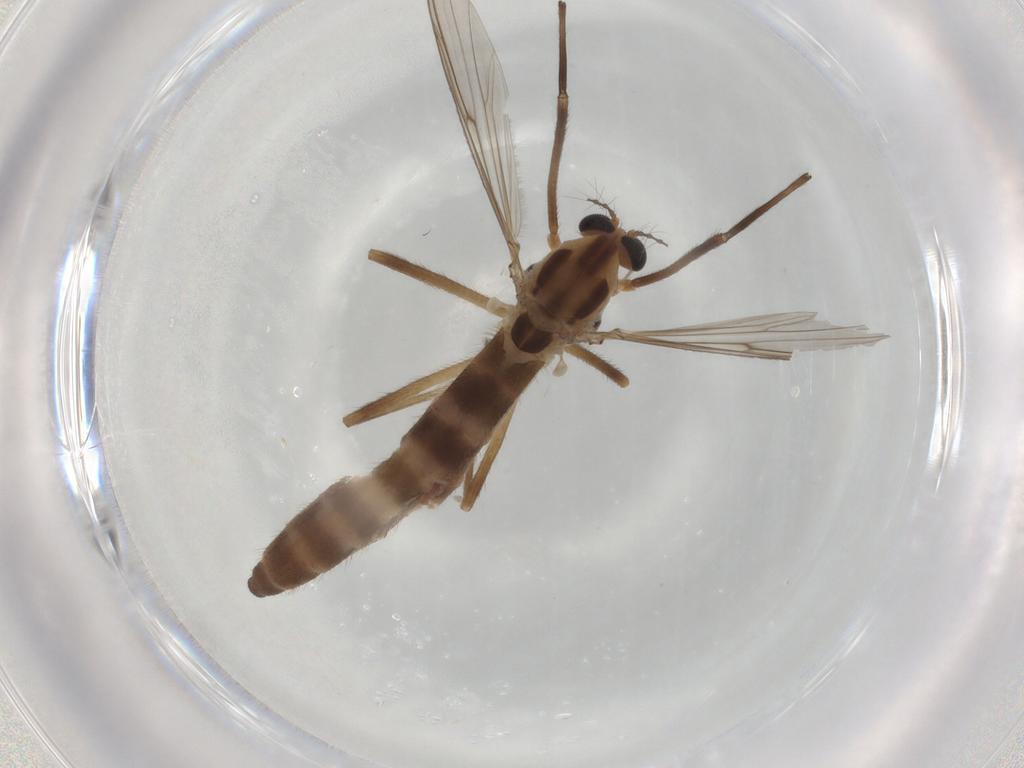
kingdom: Animalia
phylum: Arthropoda
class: Insecta
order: Diptera
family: Chironomidae
